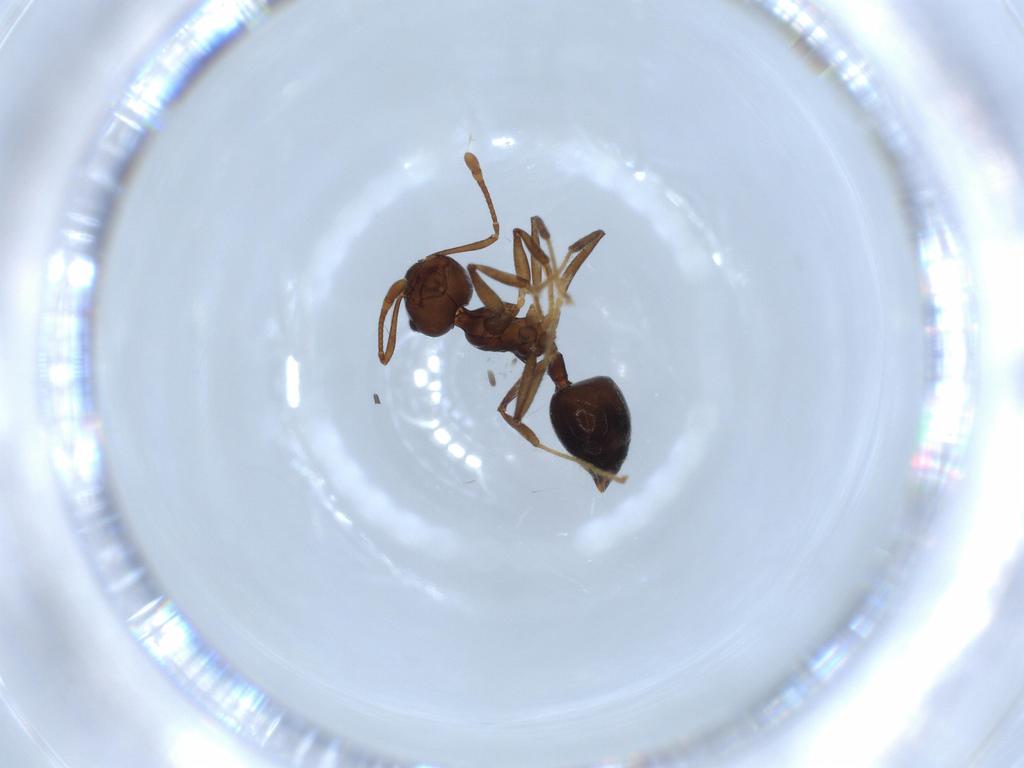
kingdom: Animalia
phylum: Arthropoda
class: Insecta
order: Hymenoptera
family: Formicidae
